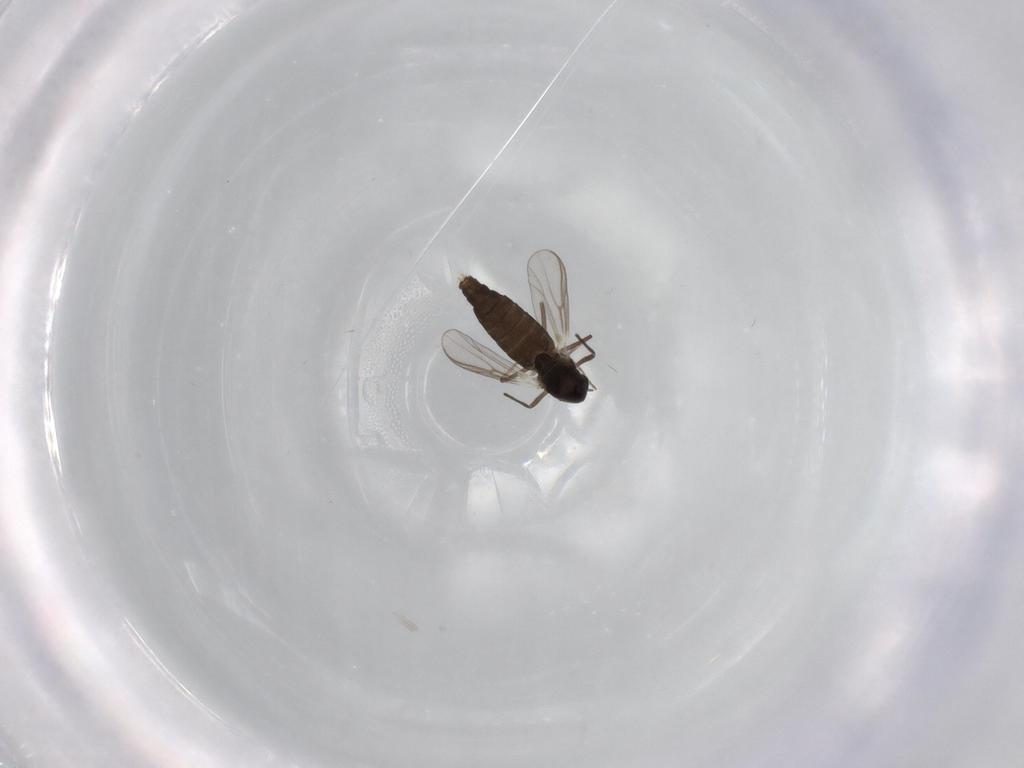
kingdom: Animalia
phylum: Arthropoda
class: Insecta
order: Diptera
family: Chironomidae
